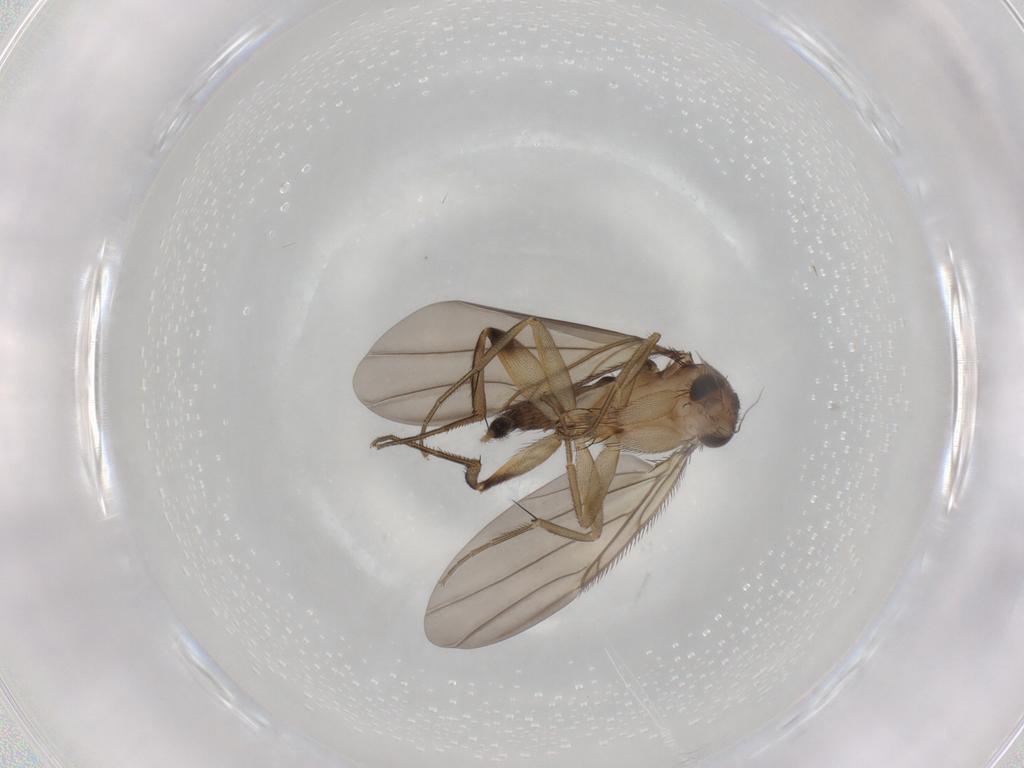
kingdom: Animalia
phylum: Arthropoda
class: Insecta
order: Diptera
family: Phoridae
